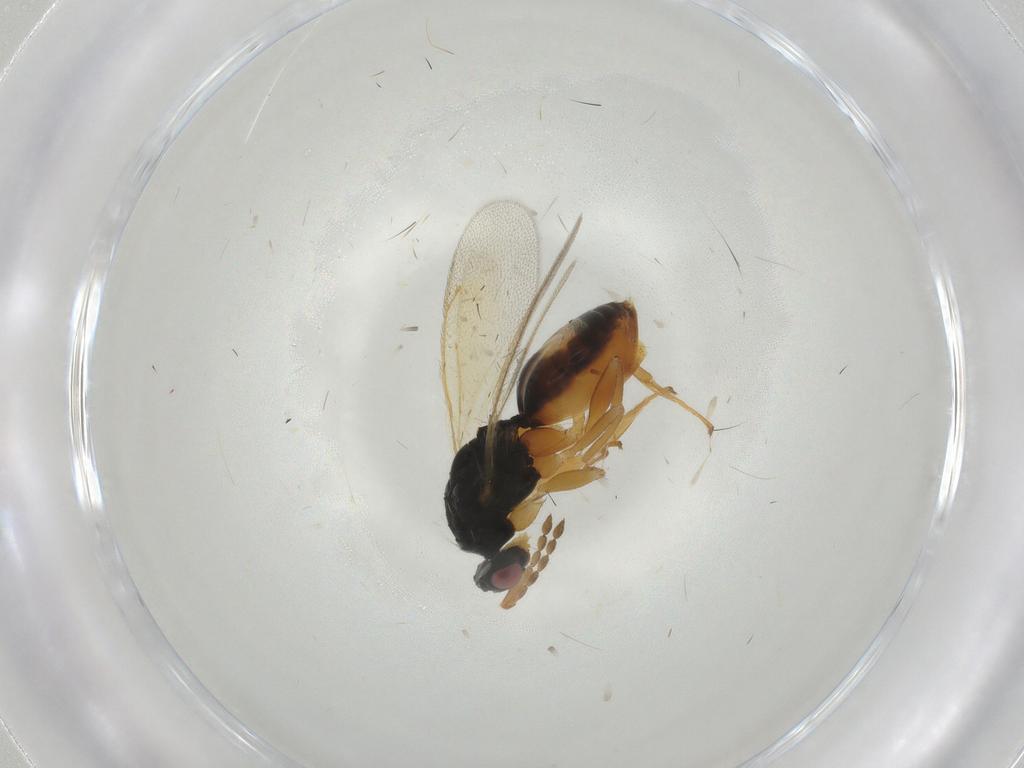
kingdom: Animalia
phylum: Arthropoda
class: Insecta
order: Hymenoptera
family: Eulophidae
